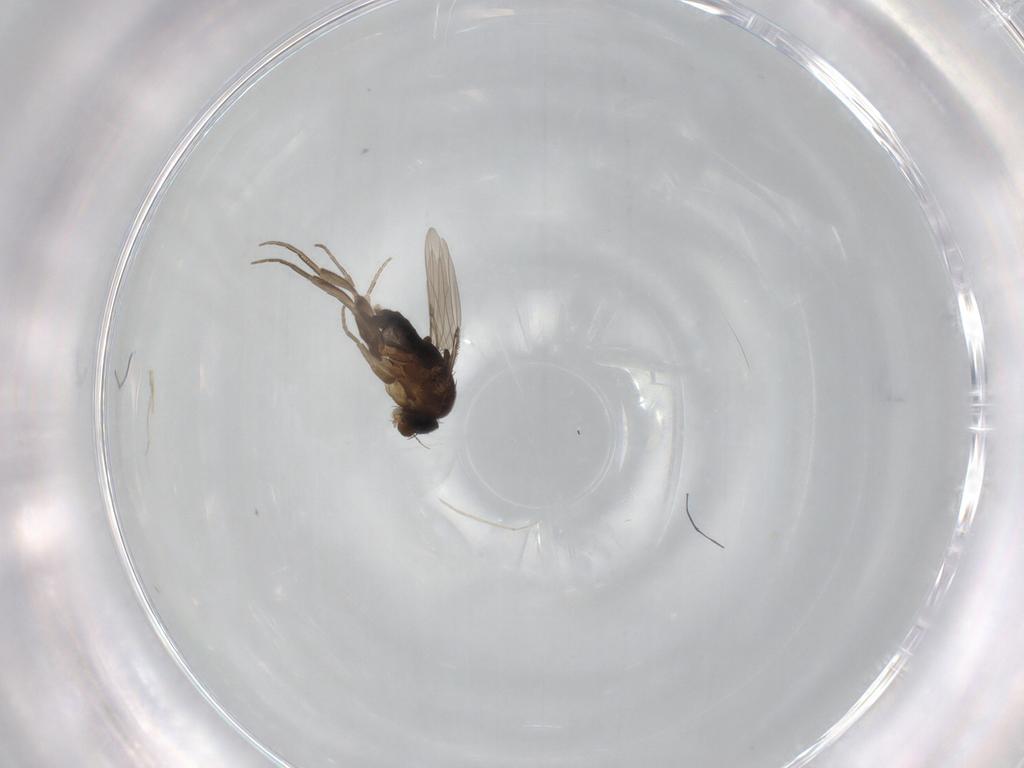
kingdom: Animalia
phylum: Arthropoda
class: Insecta
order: Diptera
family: Phoridae
